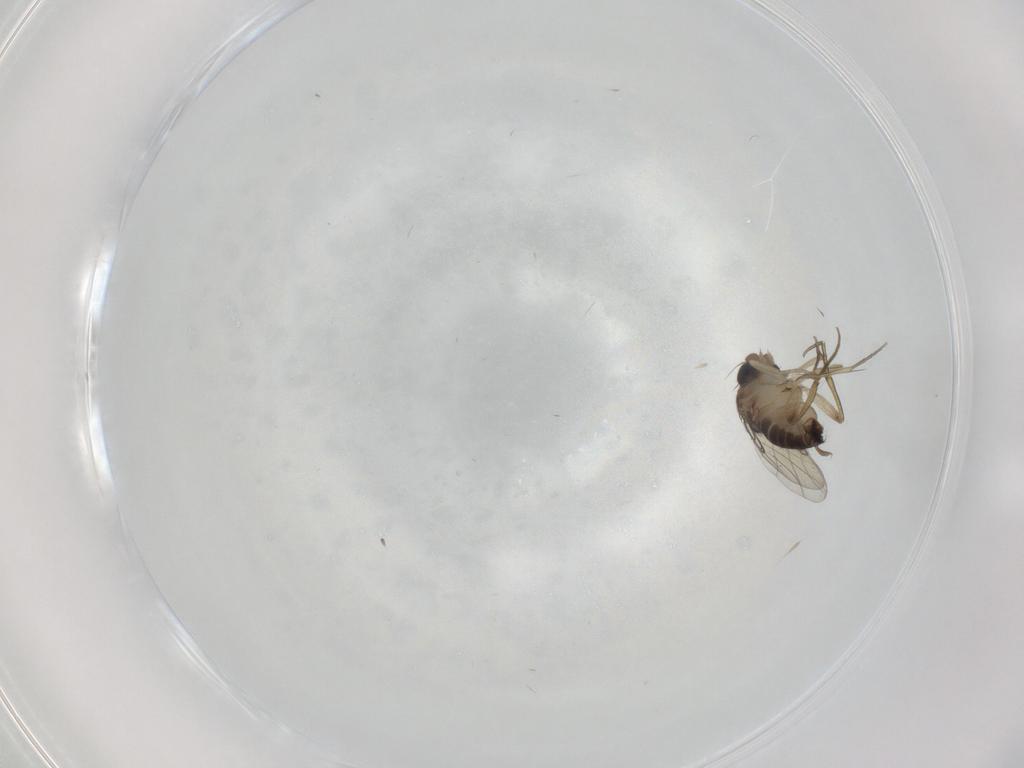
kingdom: Animalia
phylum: Arthropoda
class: Insecta
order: Diptera
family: Phoridae
